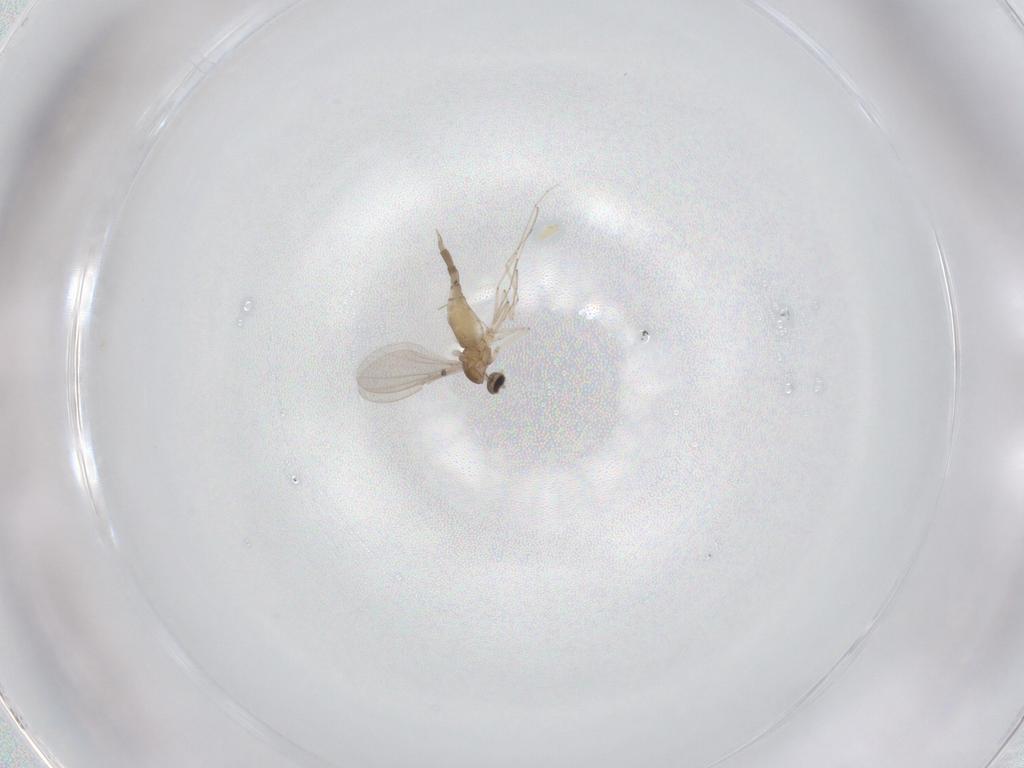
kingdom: Animalia
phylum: Arthropoda
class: Insecta
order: Diptera
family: Cecidomyiidae
